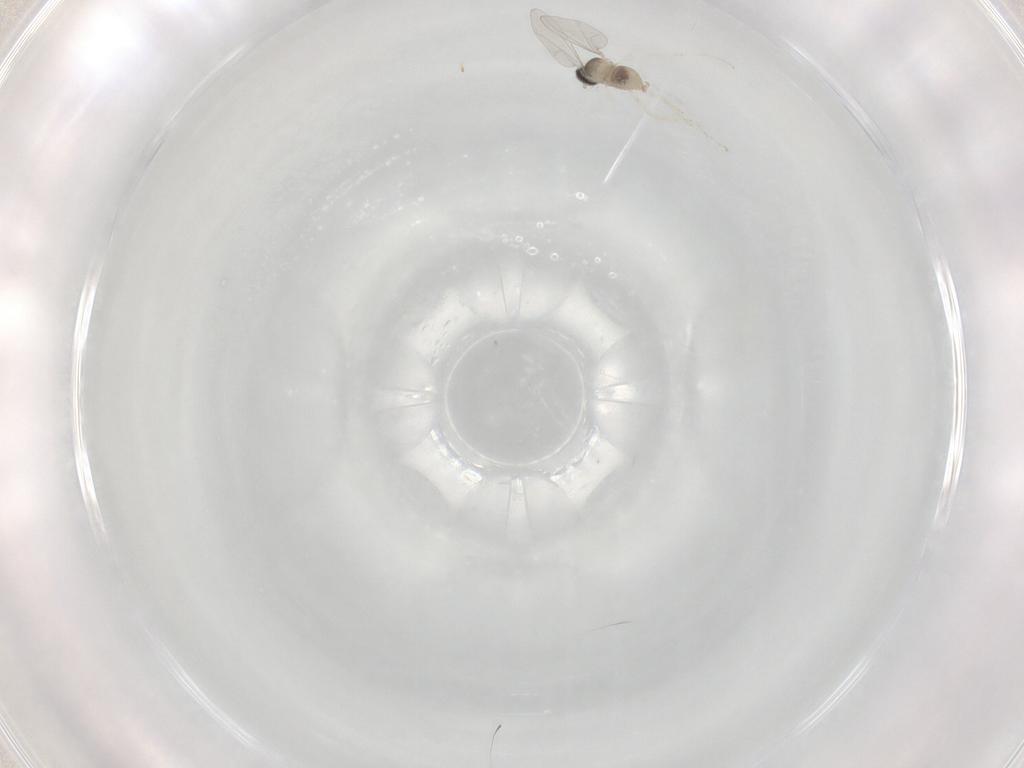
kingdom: Animalia
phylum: Arthropoda
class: Insecta
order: Diptera
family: Cecidomyiidae
